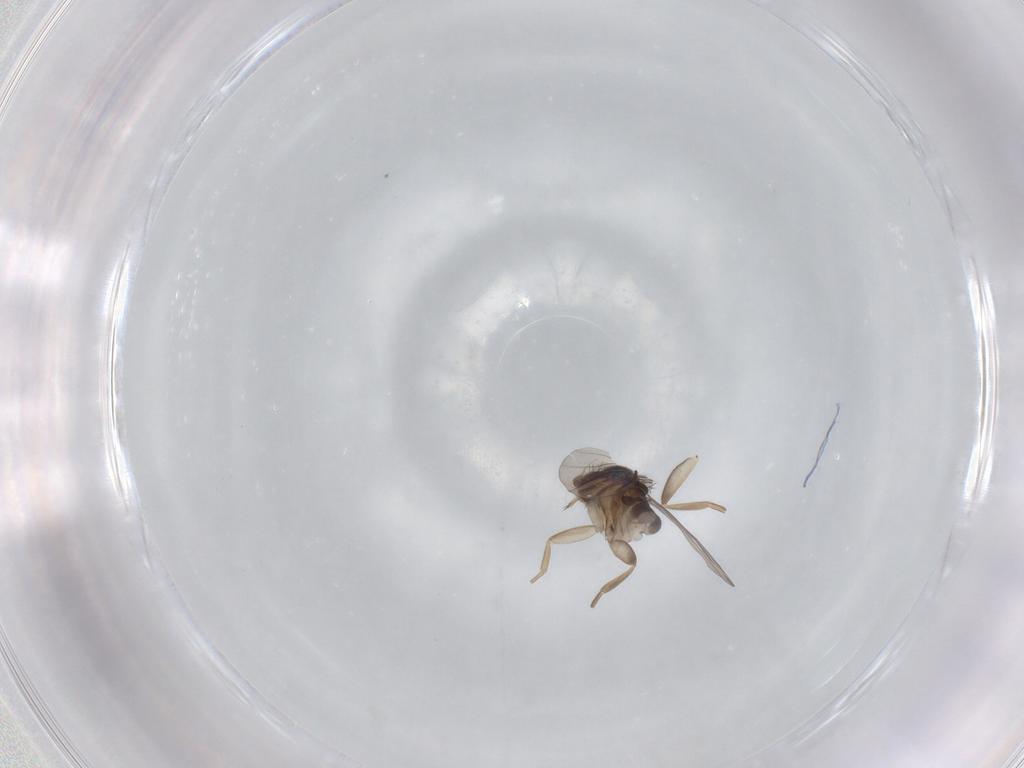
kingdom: Animalia
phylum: Arthropoda
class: Insecta
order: Diptera
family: Phoridae
